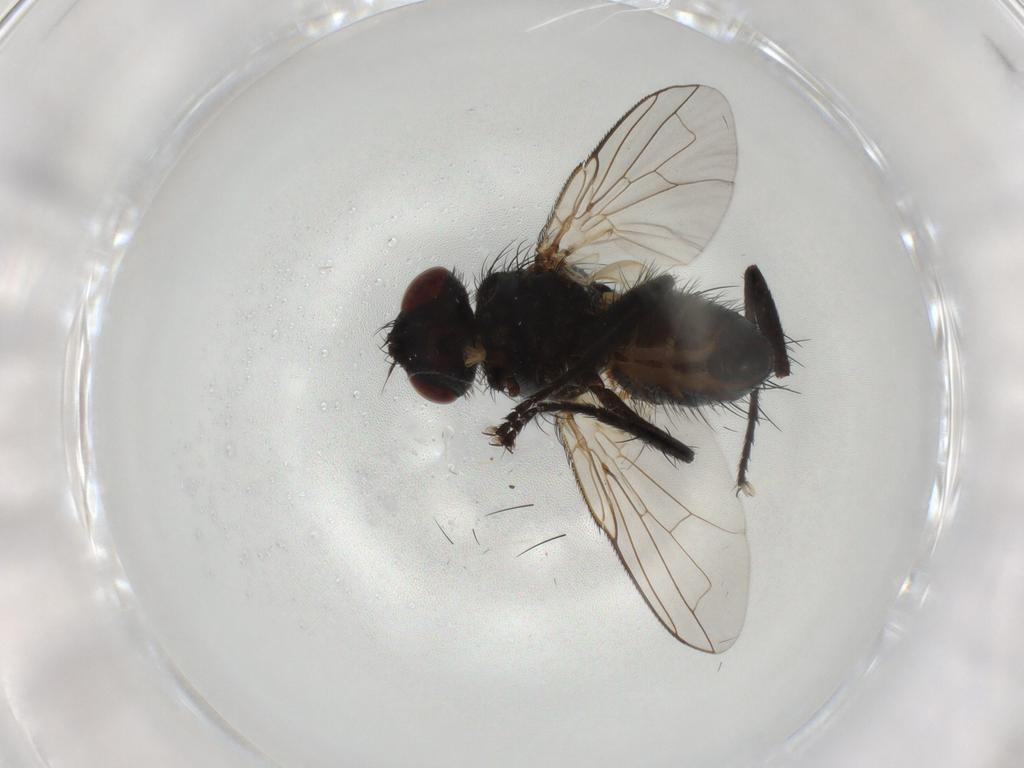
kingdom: Animalia
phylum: Arthropoda
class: Insecta
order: Diptera
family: Tachinidae
